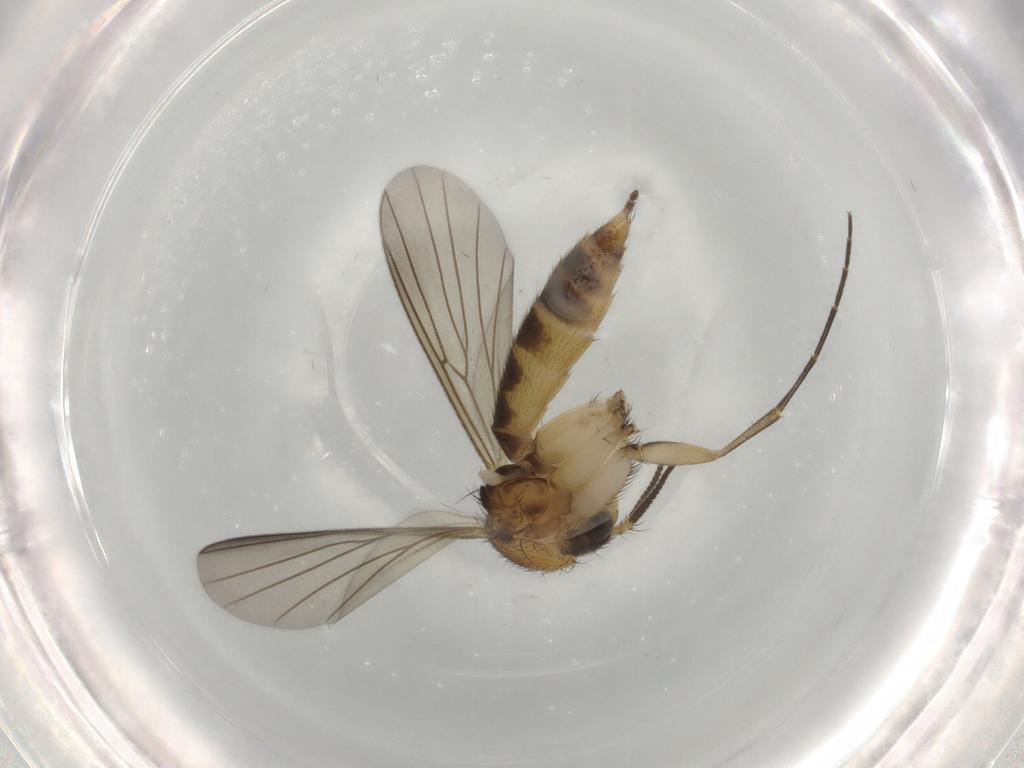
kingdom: Animalia
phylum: Arthropoda
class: Insecta
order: Diptera
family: Mycetophilidae
